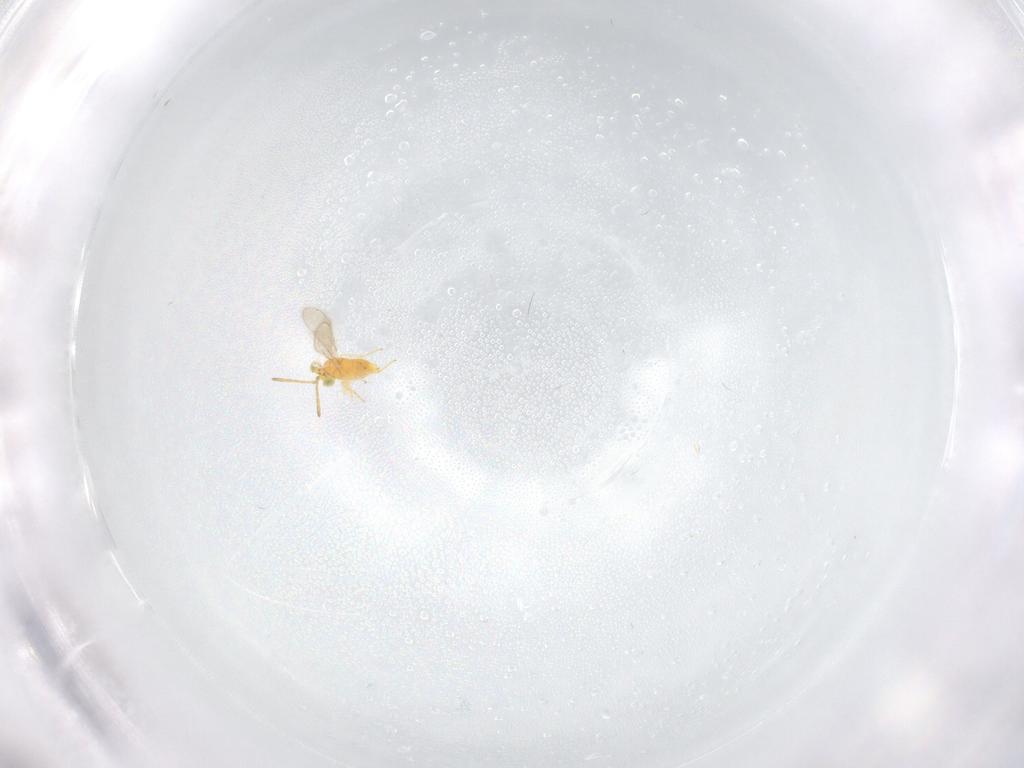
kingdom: Animalia
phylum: Arthropoda
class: Insecta
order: Hymenoptera
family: Aphelinidae
